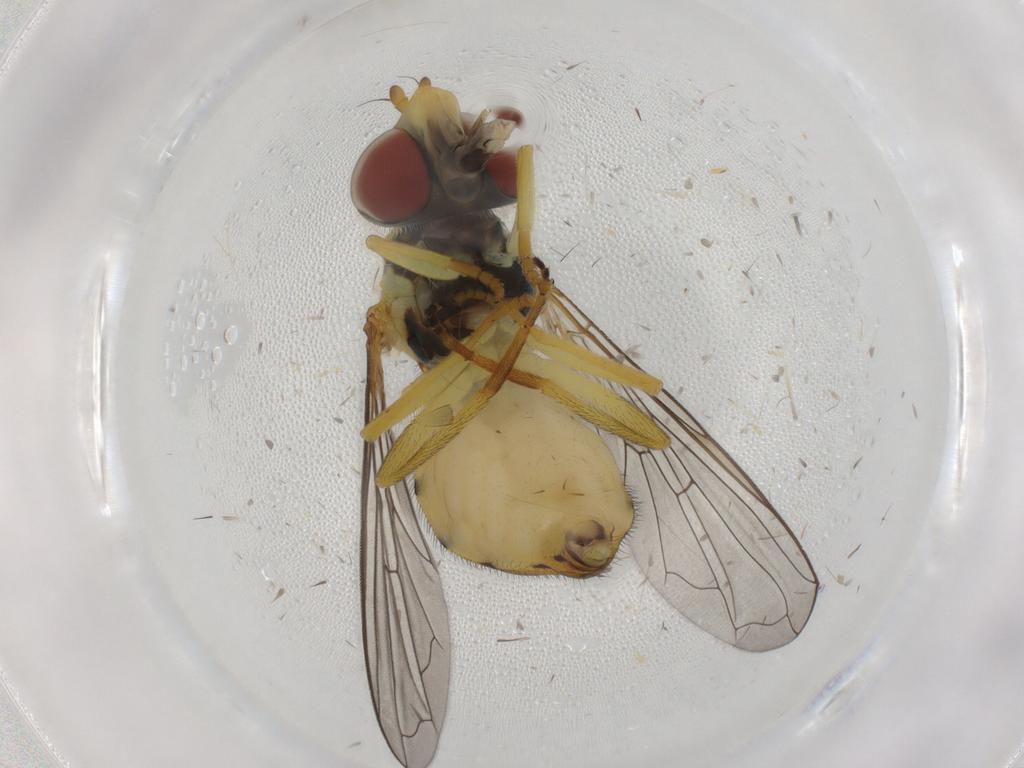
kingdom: Animalia
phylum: Arthropoda
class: Insecta
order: Diptera
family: Syrphidae
